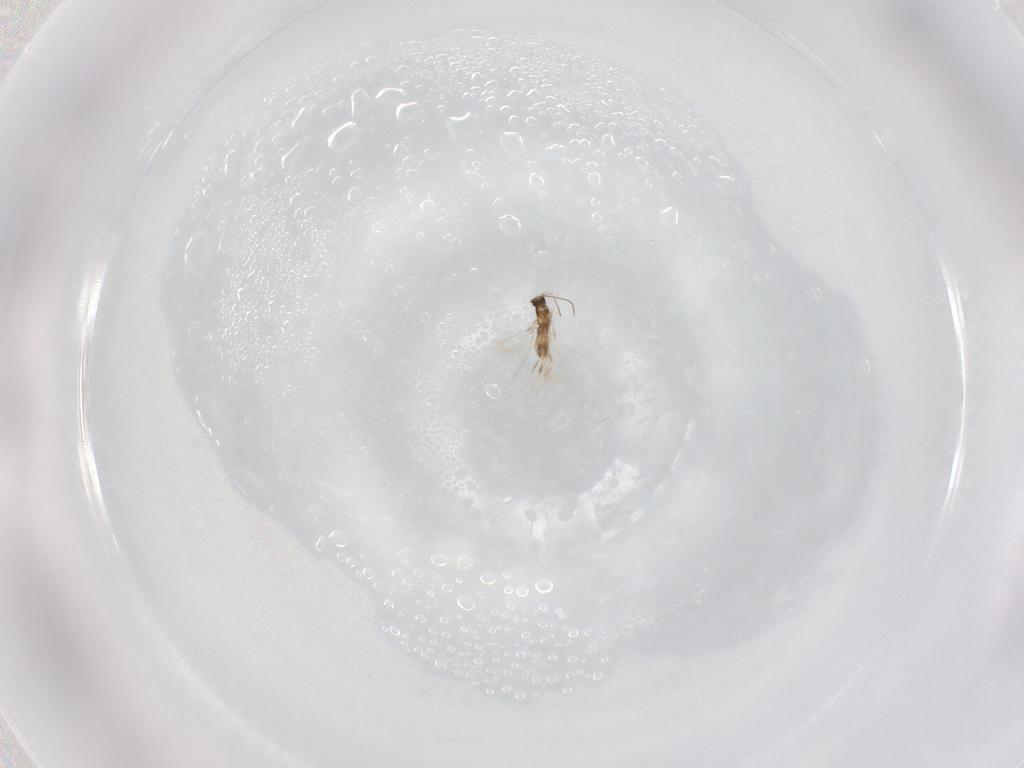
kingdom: Animalia
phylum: Arthropoda
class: Insecta
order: Hymenoptera
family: Mymaridae
